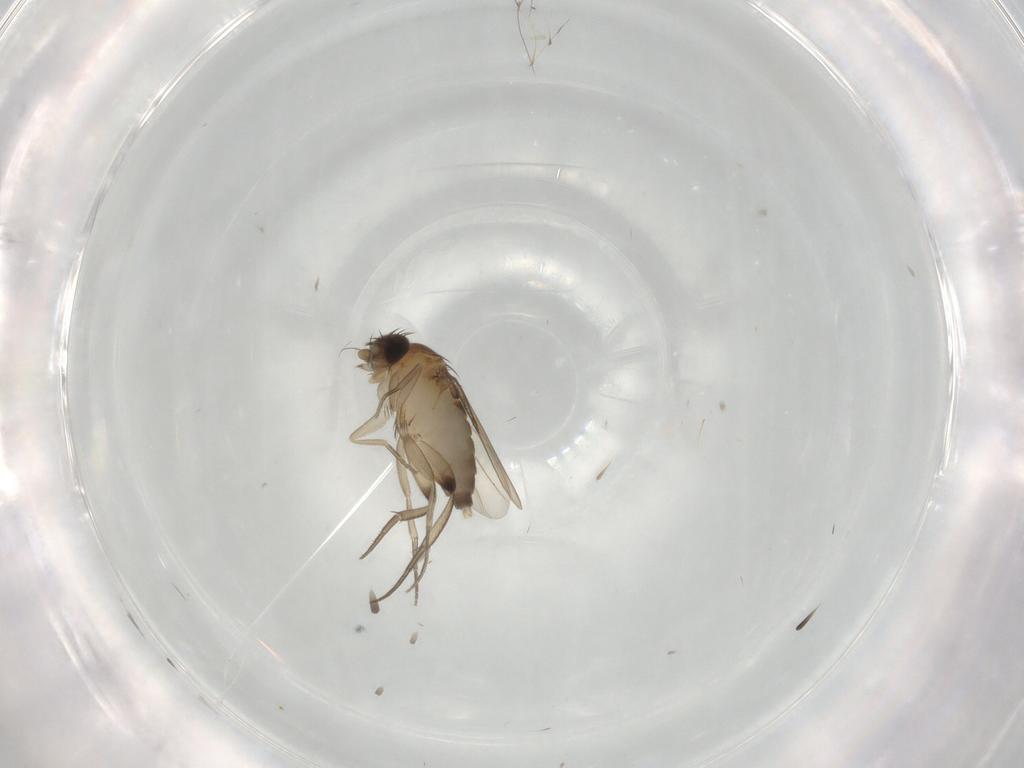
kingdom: Animalia
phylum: Arthropoda
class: Insecta
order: Diptera
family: Phoridae
